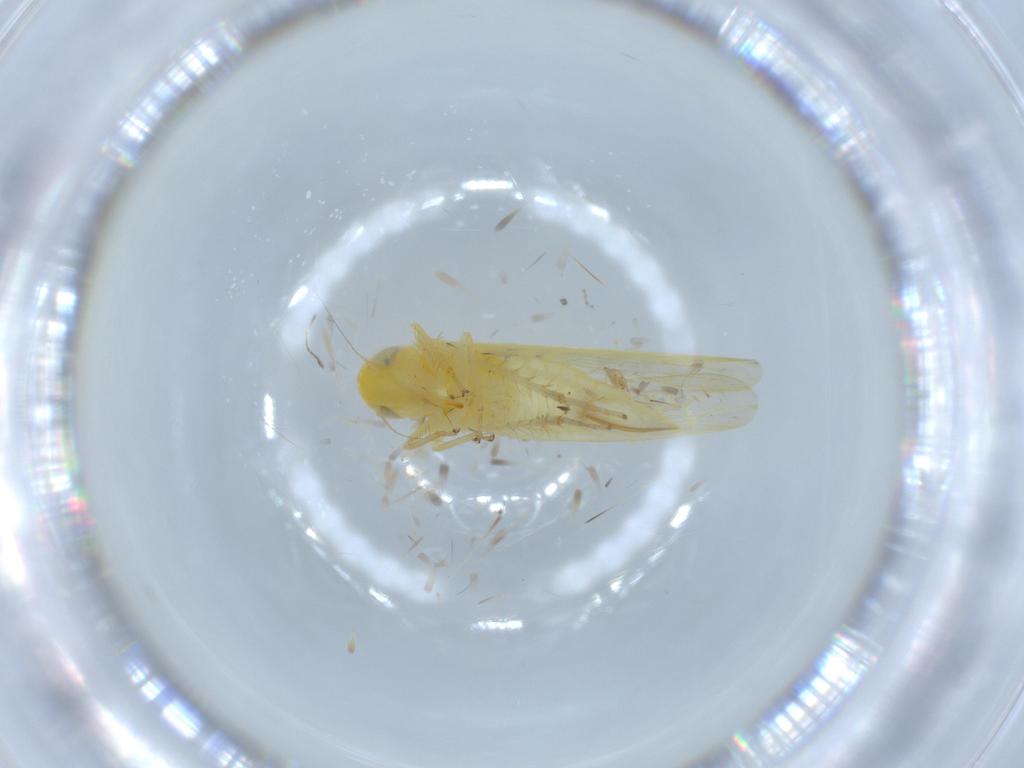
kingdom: Animalia
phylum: Arthropoda
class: Insecta
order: Hemiptera
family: Cicadellidae
